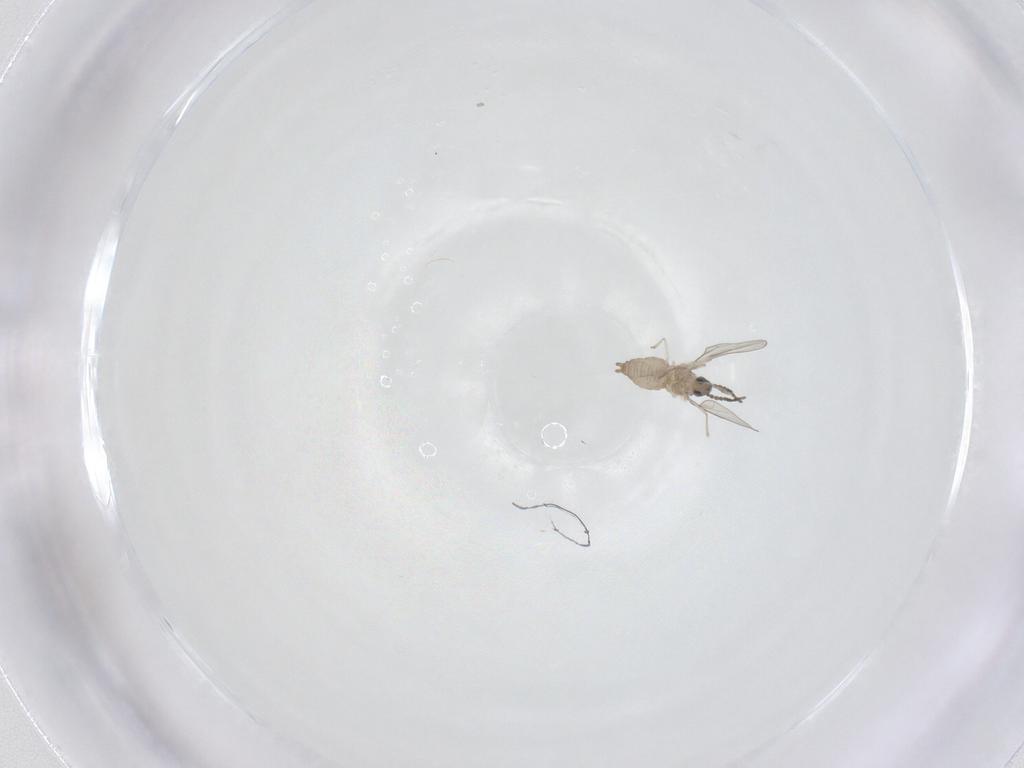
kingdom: Animalia
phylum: Arthropoda
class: Insecta
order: Diptera
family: Cecidomyiidae
